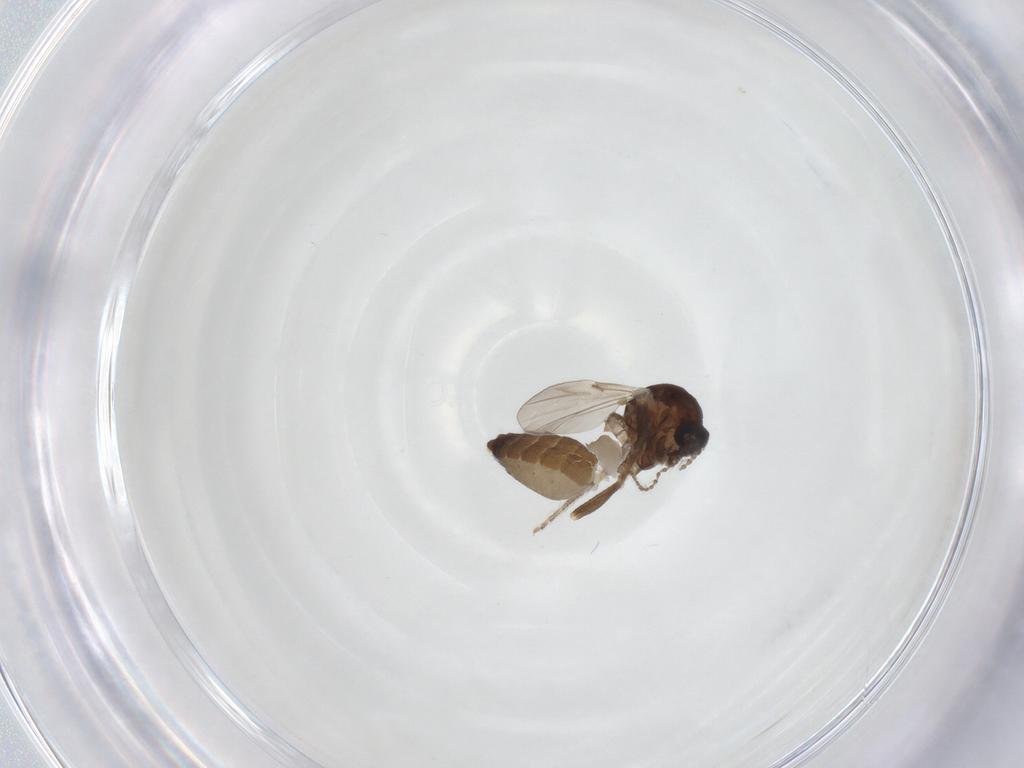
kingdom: Animalia
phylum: Arthropoda
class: Insecta
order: Diptera
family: Ceratopogonidae
